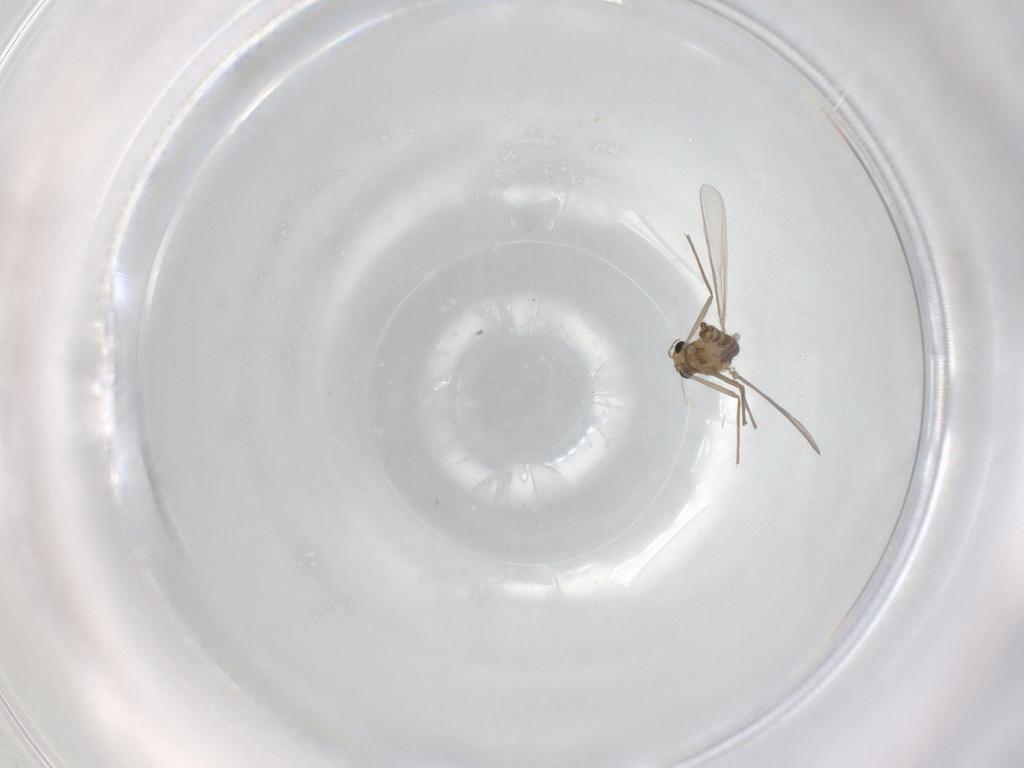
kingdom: Animalia
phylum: Arthropoda
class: Insecta
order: Diptera
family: Chironomidae
